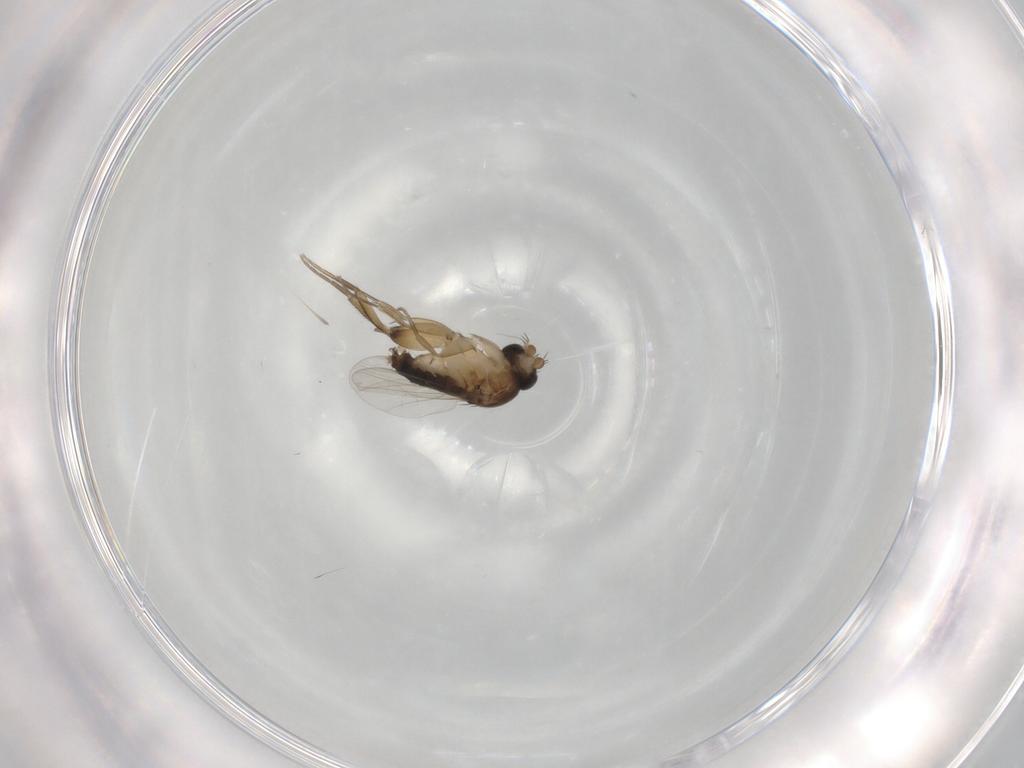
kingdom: Animalia
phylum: Arthropoda
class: Insecta
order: Diptera
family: Phoridae
